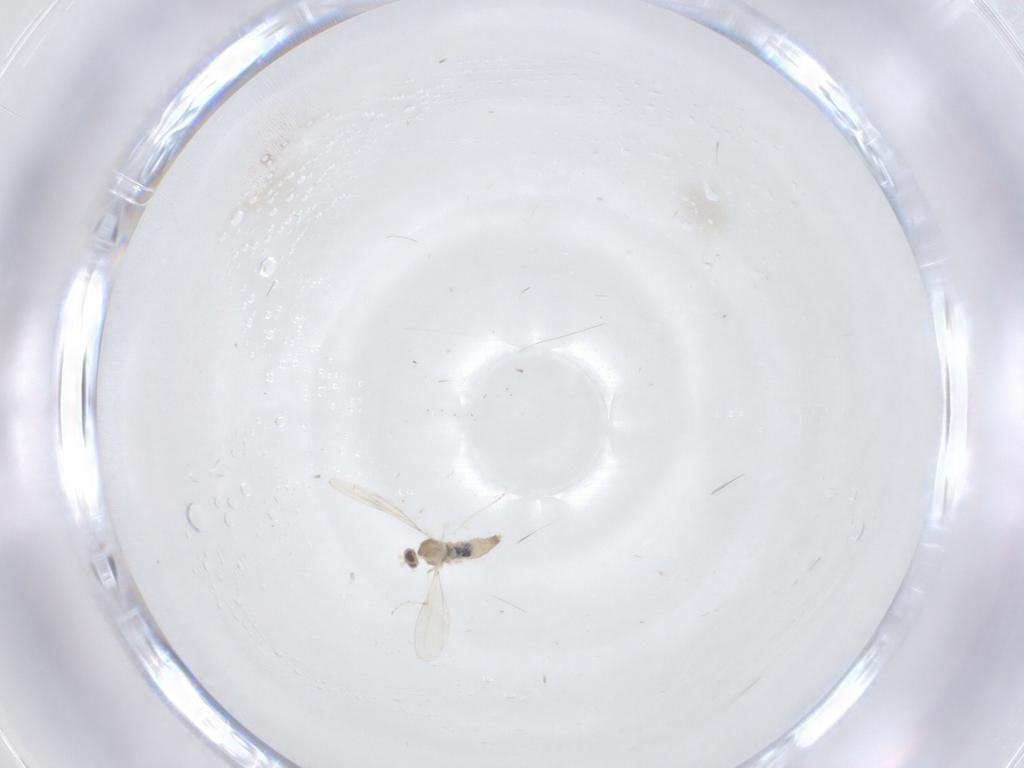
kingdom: Animalia
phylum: Arthropoda
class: Insecta
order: Diptera
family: Cecidomyiidae
